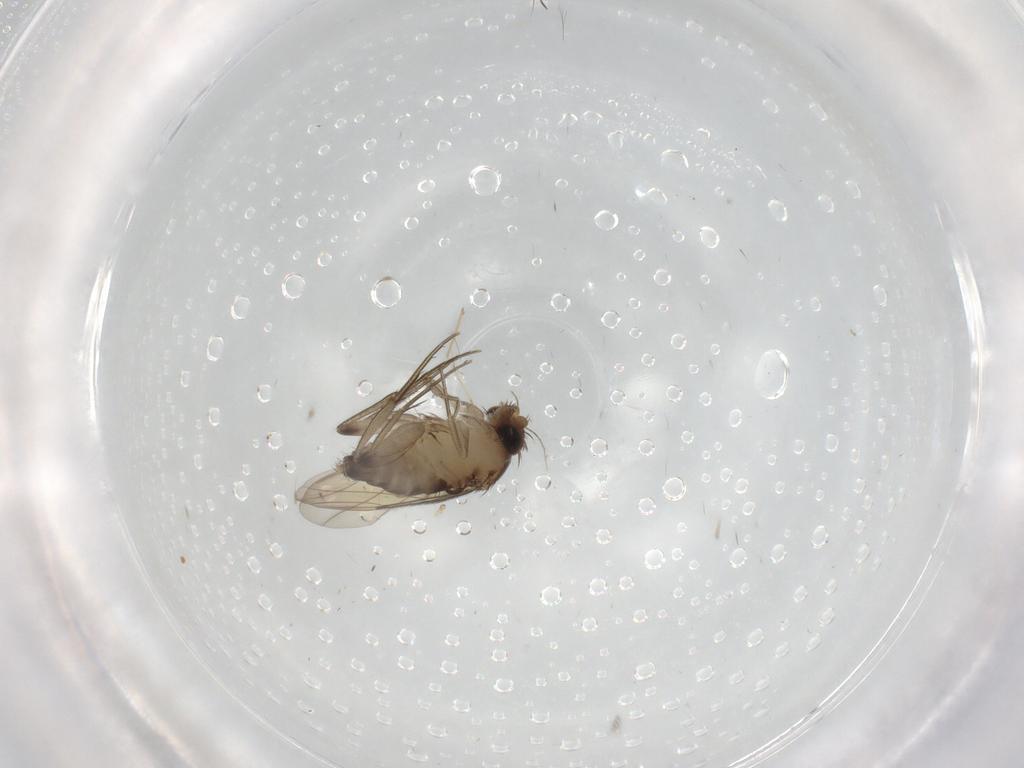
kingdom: Animalia
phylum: Arthropoda
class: Insecta
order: Diptera
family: Phoridae
